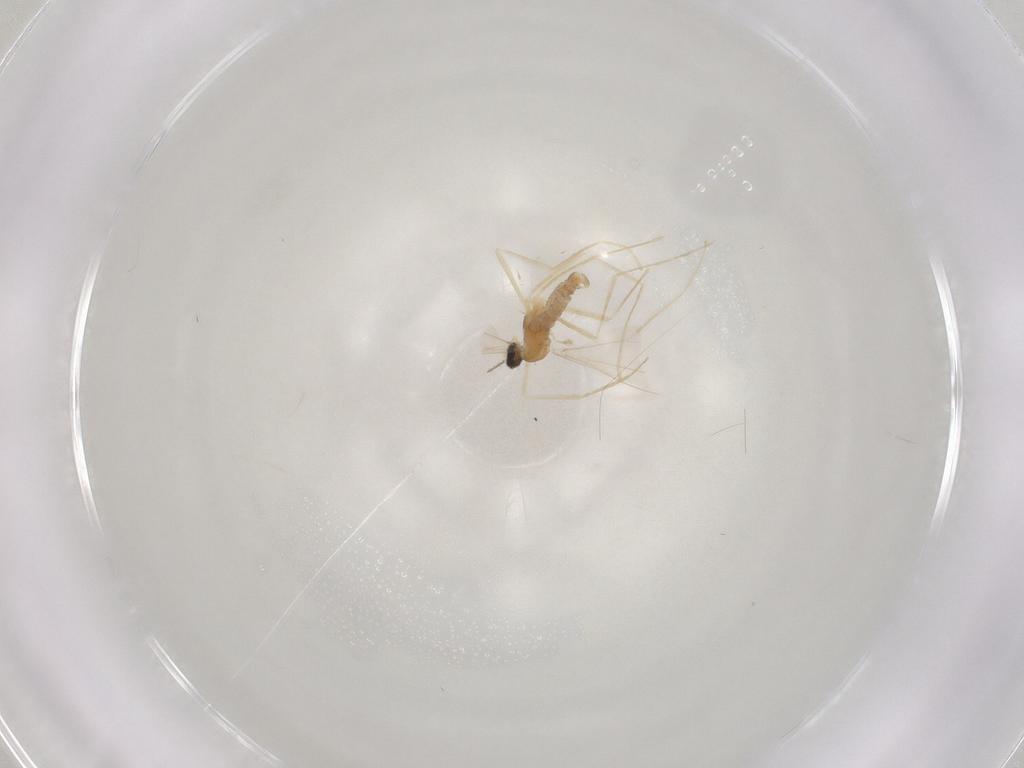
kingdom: Animalia
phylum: Arthropoda
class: Insecta
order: Diptera
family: Cecidomyiidae
